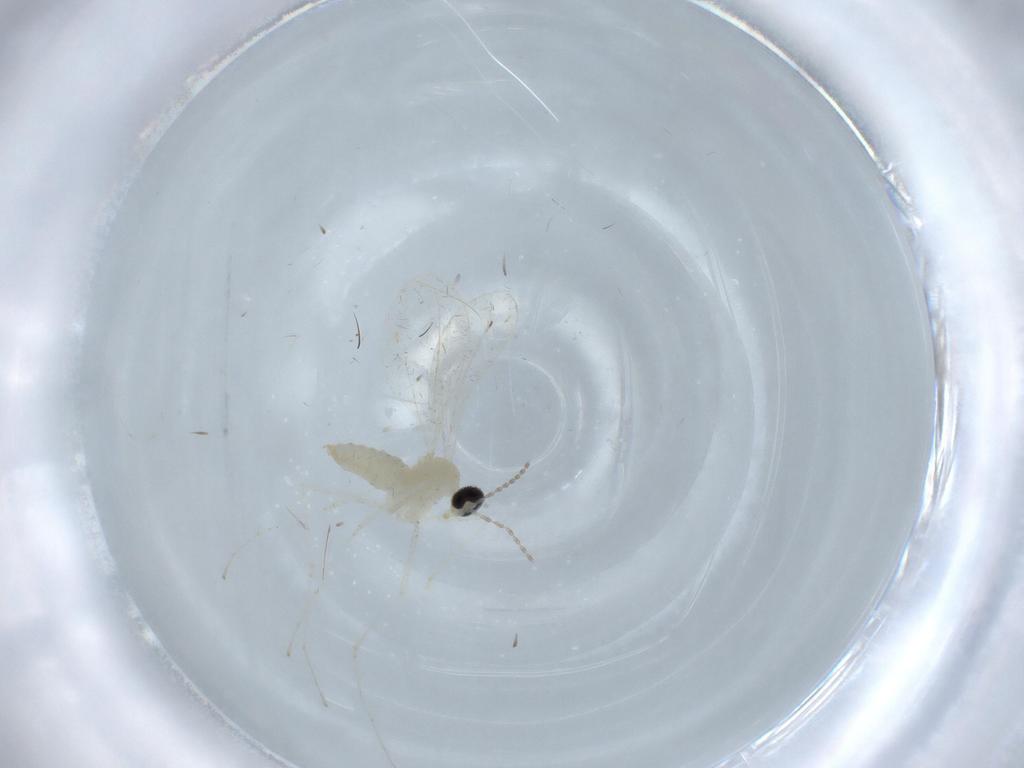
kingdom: Animalia
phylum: Arthropoda
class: Insecta
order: Diptera
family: Cecidomyiidae
